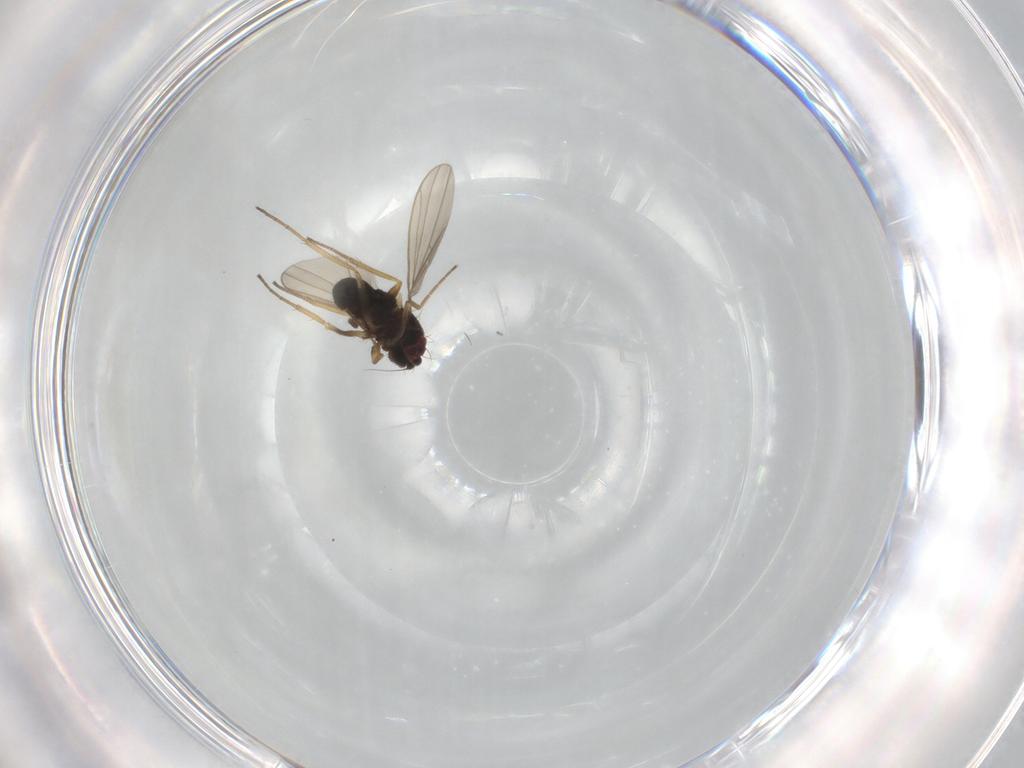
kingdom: Animalia
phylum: Arthropoda
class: Insecta
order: Diptera
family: Dolichopodidae
